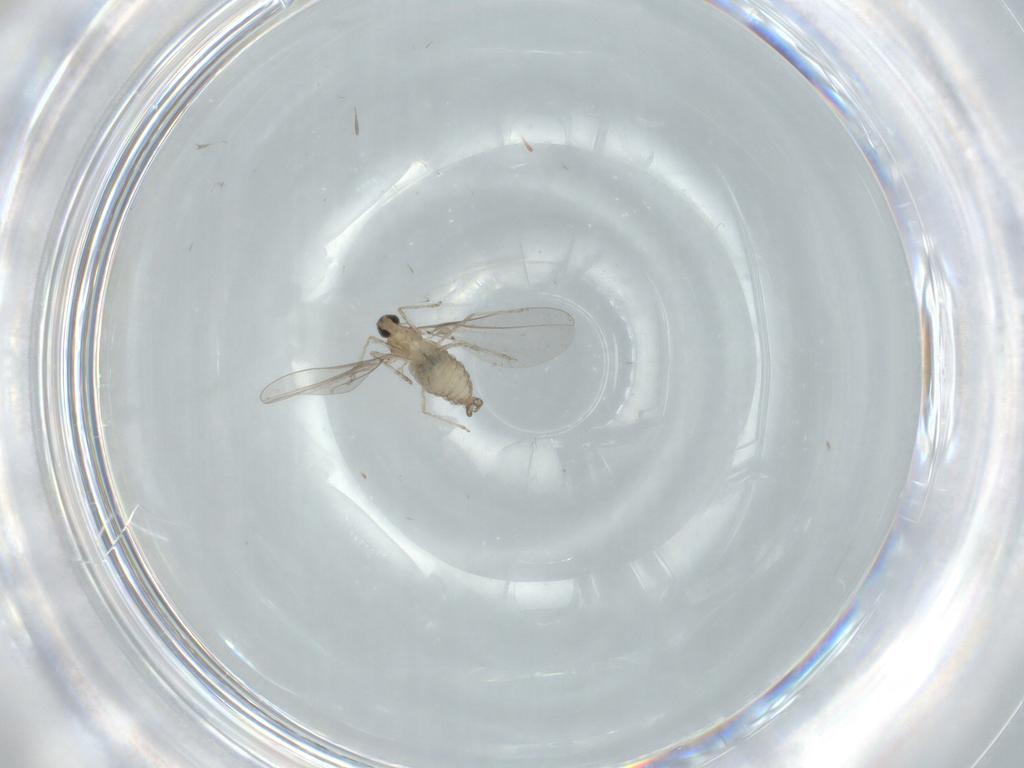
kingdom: Animalia
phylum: Arthropoda
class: Insecta
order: Diptera
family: Cecidomyiidae
